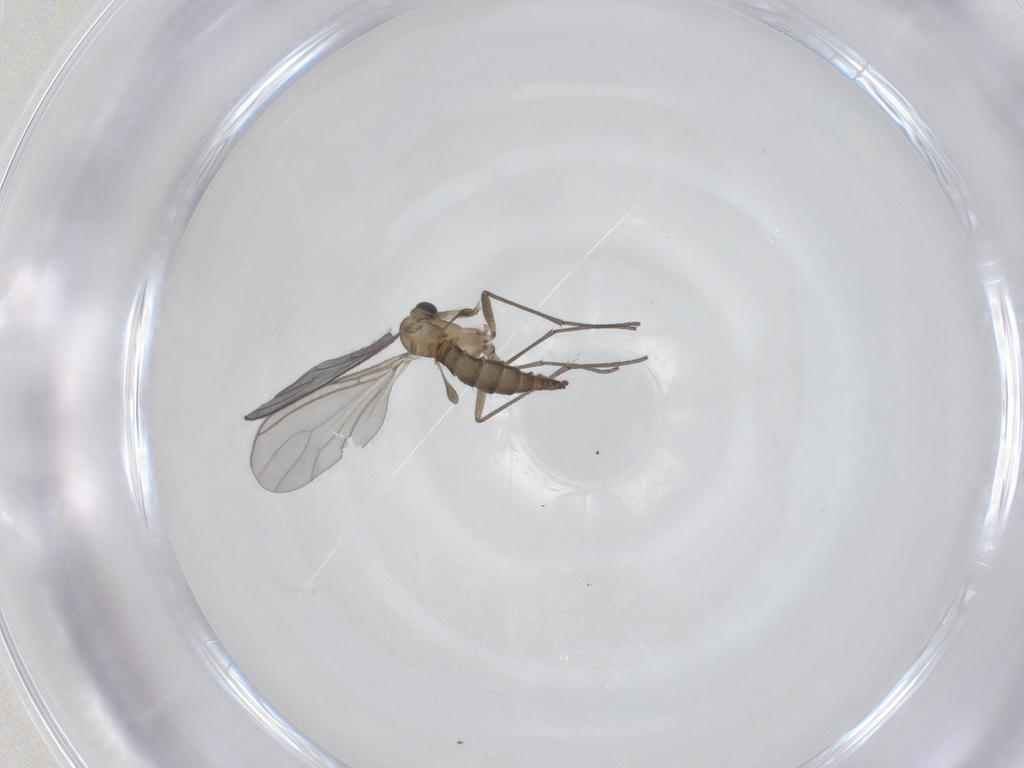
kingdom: Animalia
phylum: Arthropoda
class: Insecta
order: Diptera
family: Sciaridae
